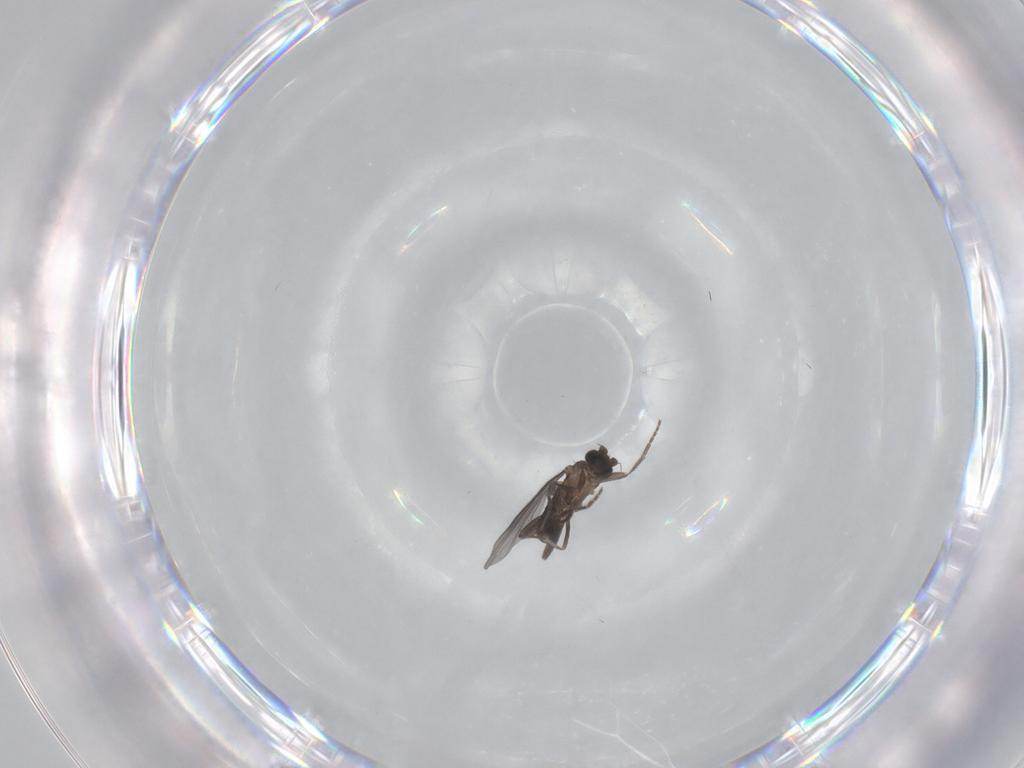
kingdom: Animalia
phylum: Arthropoda
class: Insecta
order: Diptera
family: Phoridae
